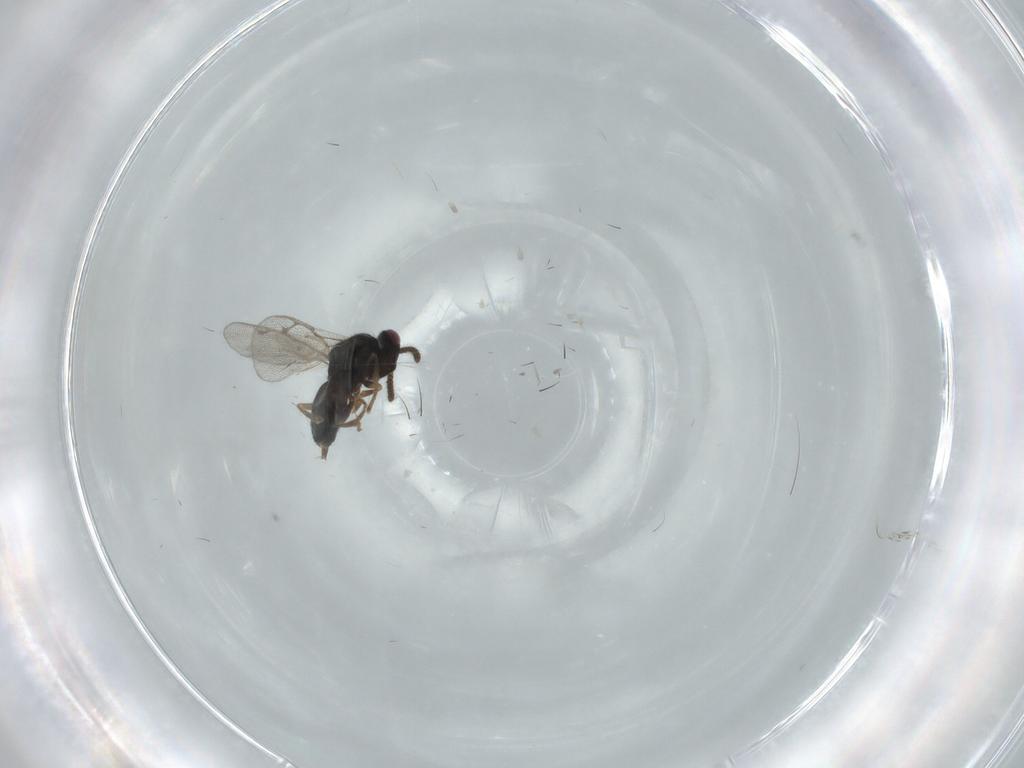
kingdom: Animalia
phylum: Arthropoda
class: Insecta
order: Hymenoptera
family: Pirenidae
